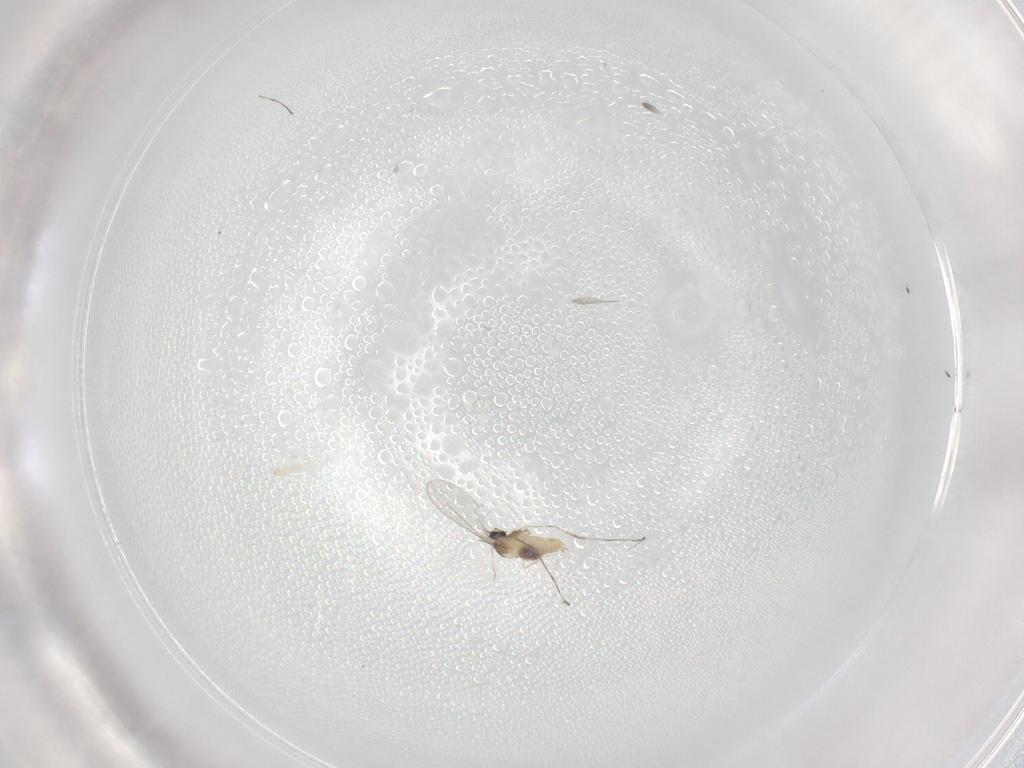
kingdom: Animalia
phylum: Arthropoda
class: Insecta
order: Diptera
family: Cecidomyiidae
